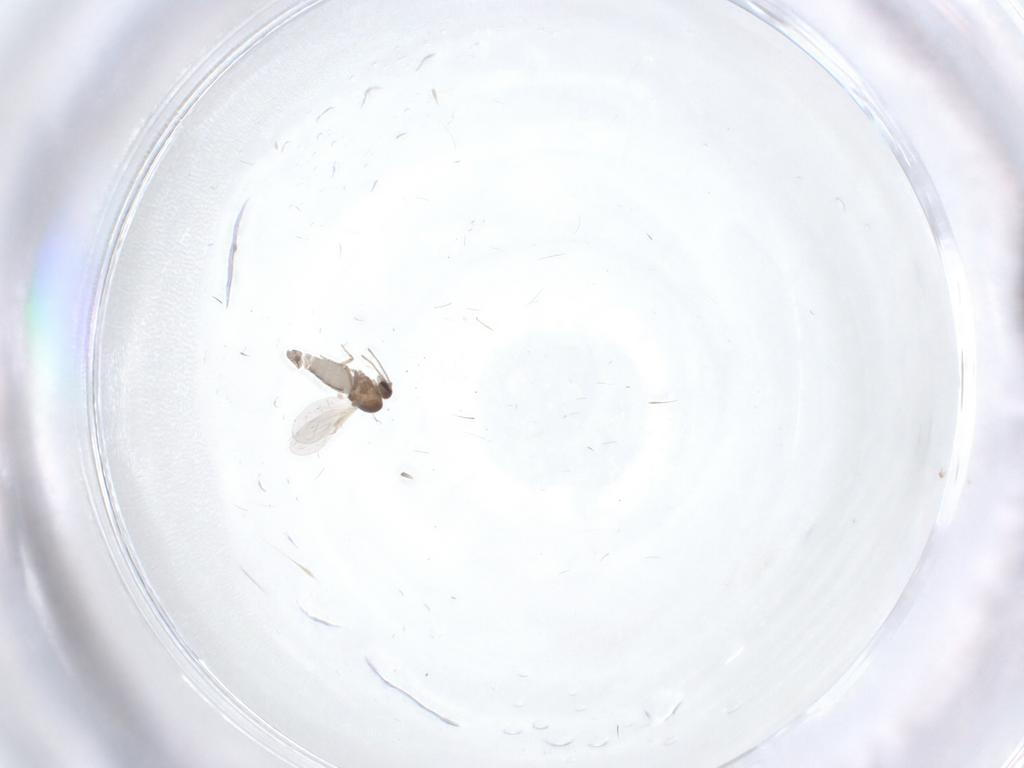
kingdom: Animalia
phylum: Arthropoda
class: Insecta
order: Diptera
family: Ceratopogonidae
